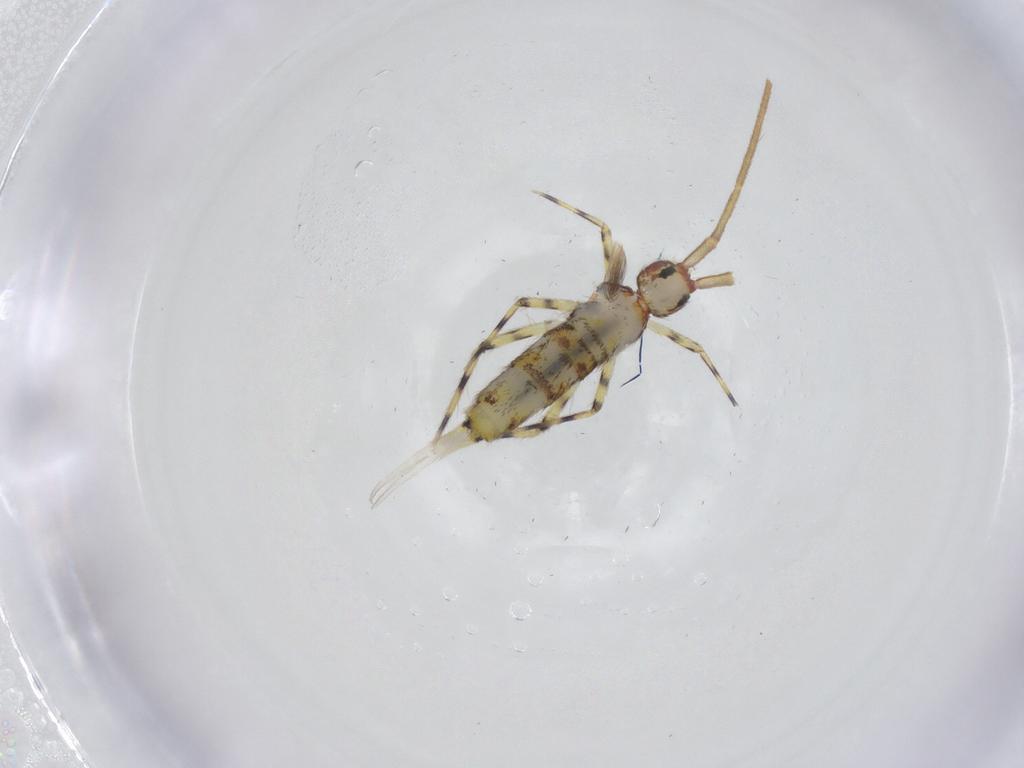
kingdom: Animalia
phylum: Arthropoda
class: Collembola
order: Entomobryomorpha
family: Entomobryidae
